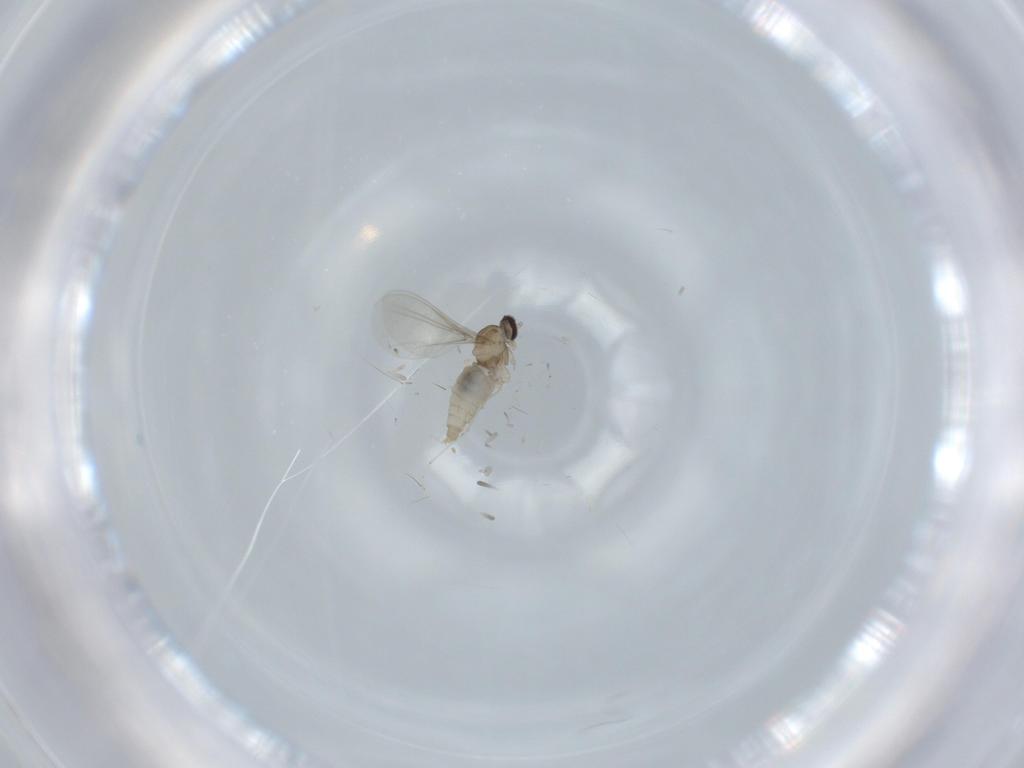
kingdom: Animalia
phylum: Arthropoda
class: Insecta
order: Diptera
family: Cecidomyiidae
